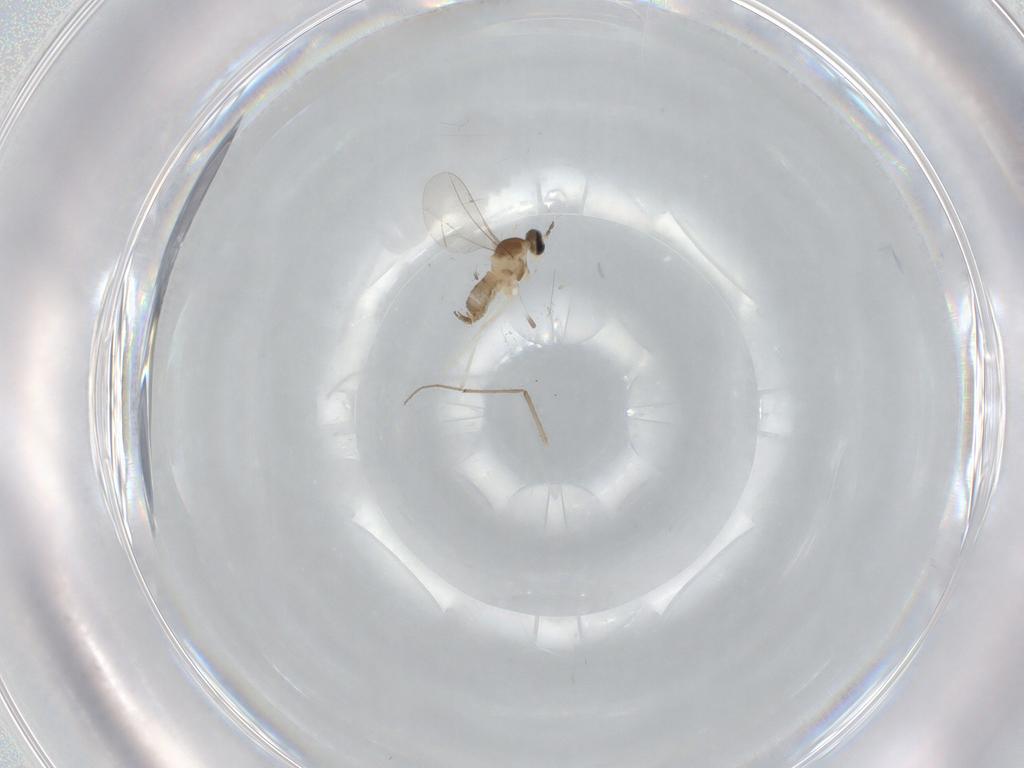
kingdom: Animalia
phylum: Arthropoda
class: Insecta
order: Diptera
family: Cecidomyiidae
